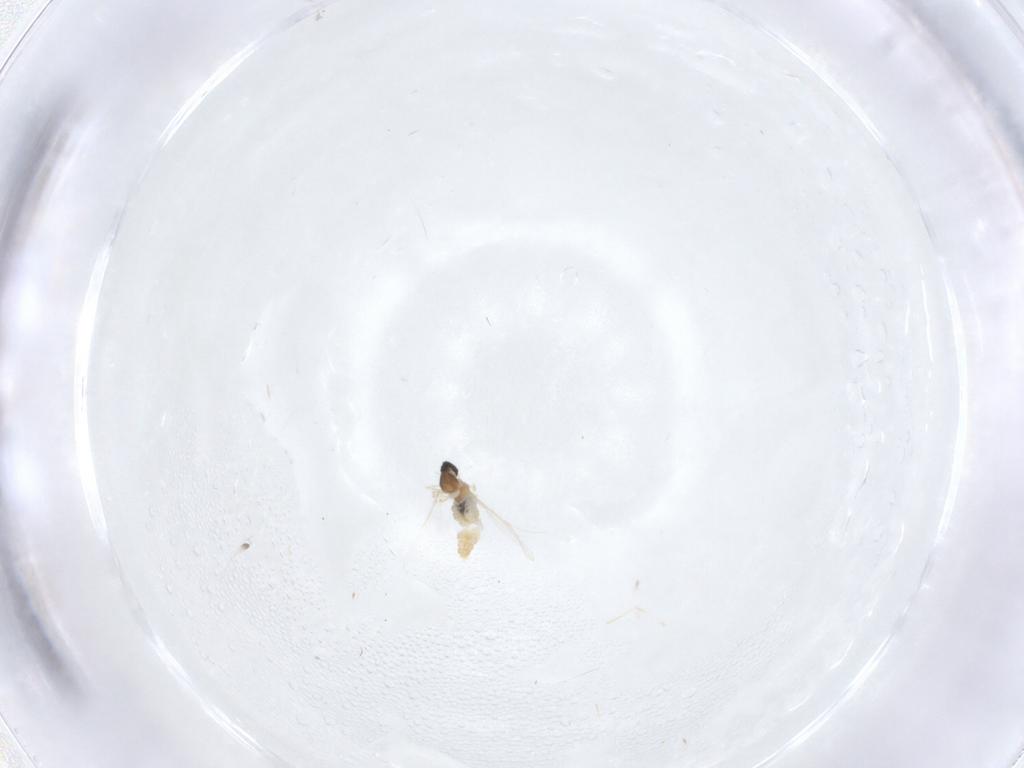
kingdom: Animalia
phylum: Arthropoda
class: Insecta
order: Diptera
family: Cecidomyiidae
